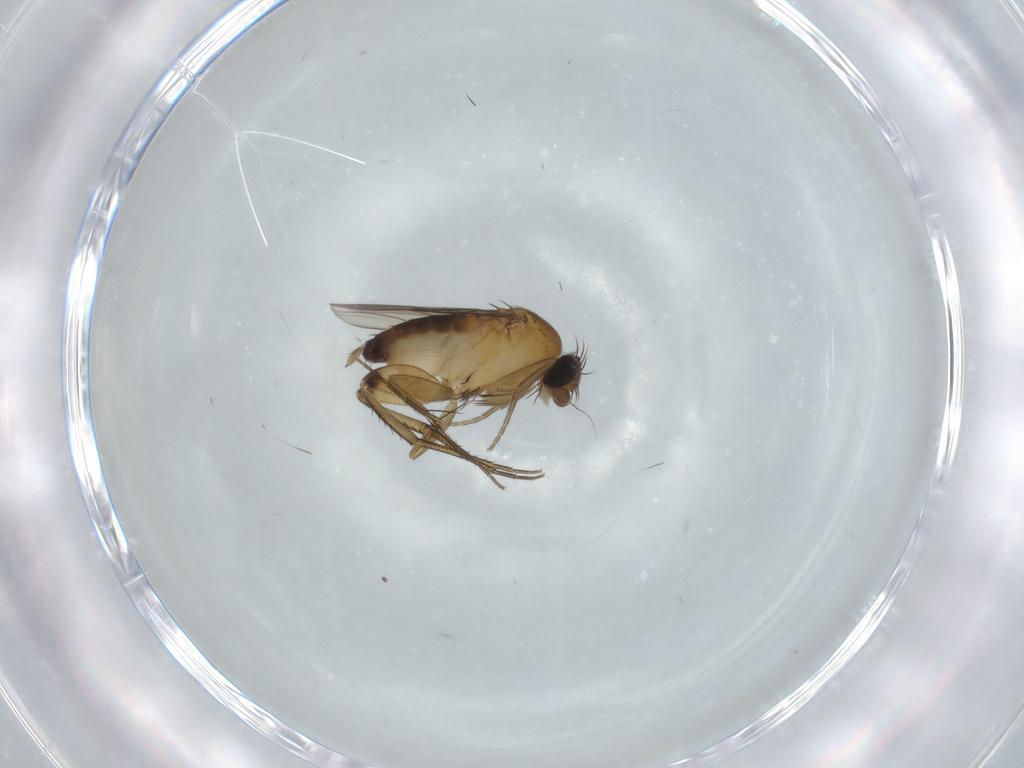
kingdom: Animalia
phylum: Arthropoda
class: Insecta
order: Diptera
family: Phoridae
